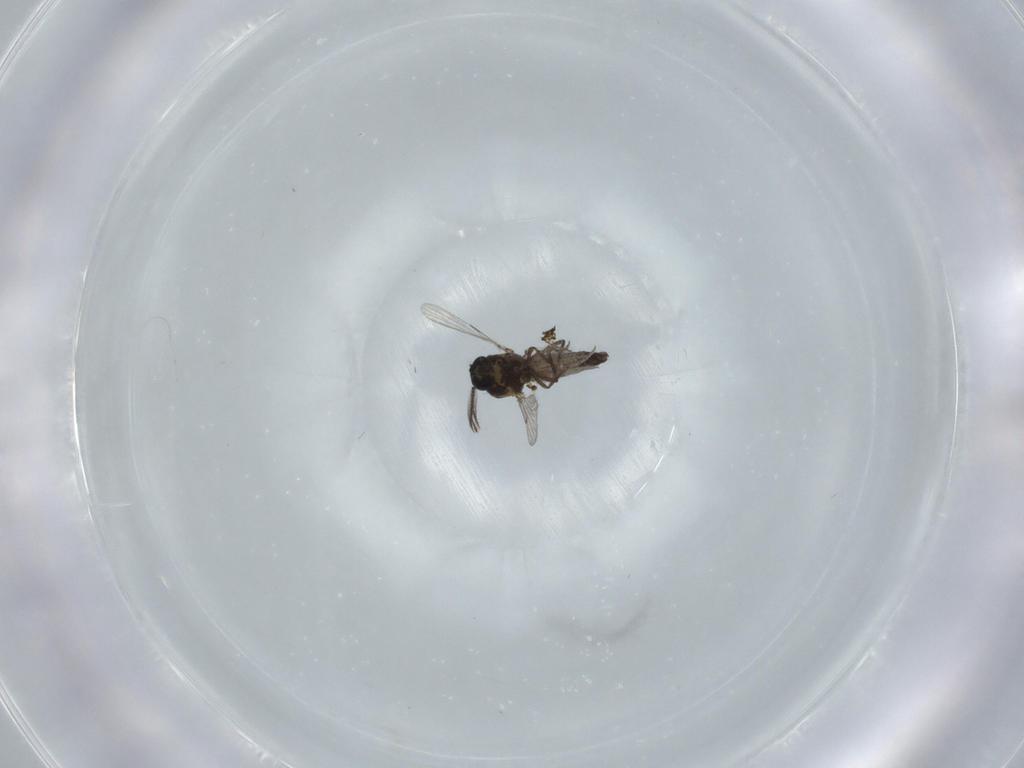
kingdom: Animalia
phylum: Arthropoda
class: Insecta
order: Diptera
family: Ceratopogonidae
